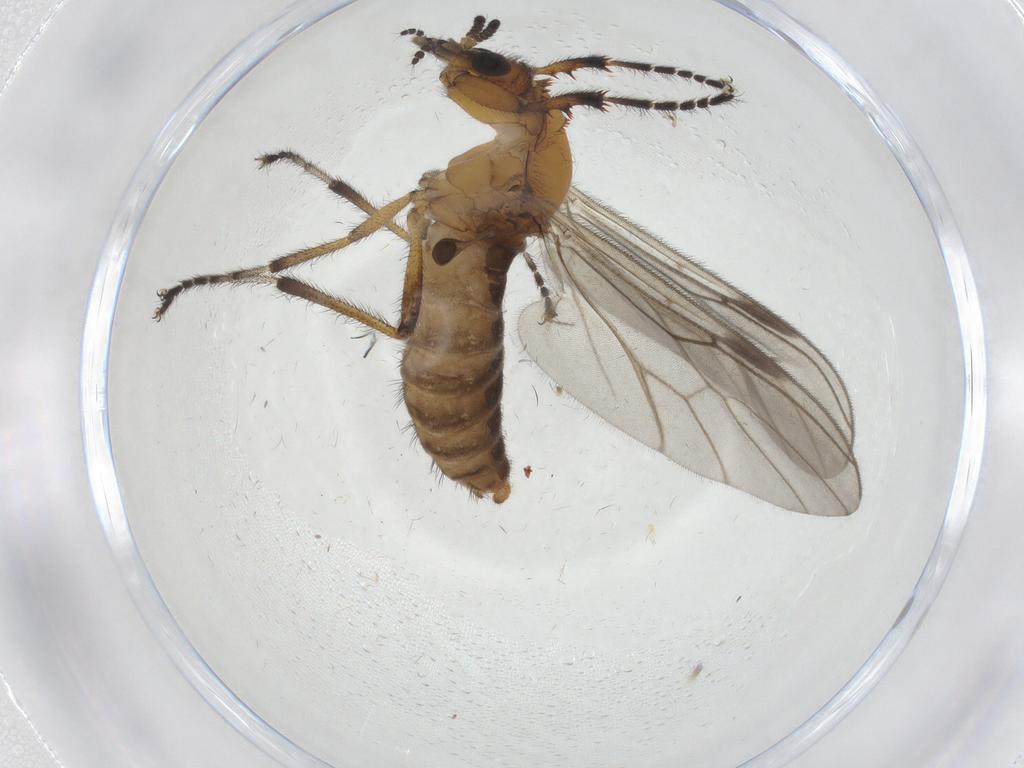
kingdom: Animalia
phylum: Arthropoda
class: Insecta
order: Diptera
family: Bibionidae
